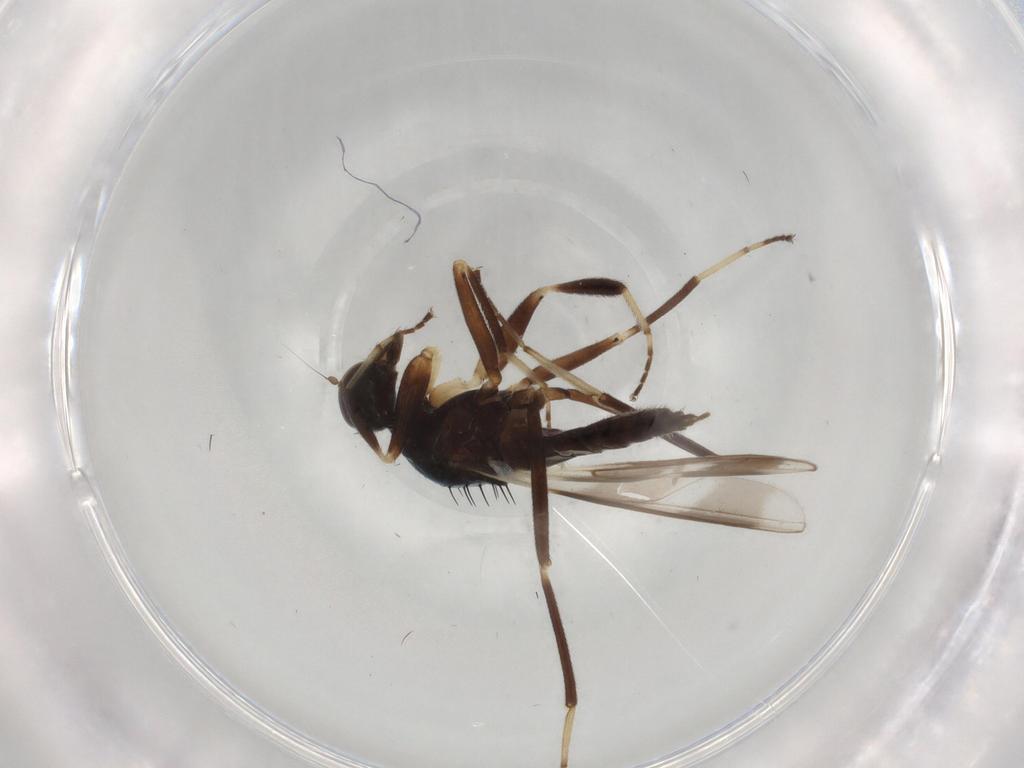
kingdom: Animalia
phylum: Arthropoda
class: Insecta
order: Diptera
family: Hybotidae
